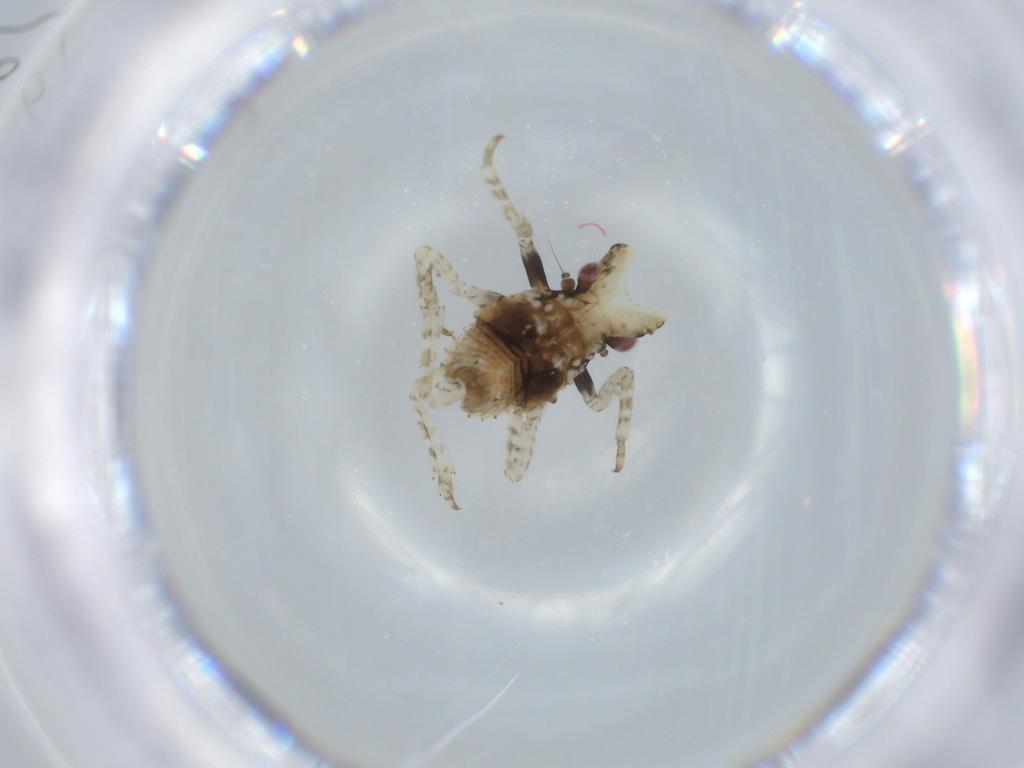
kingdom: Animalia
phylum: Arthropoda
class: Insecta
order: Hemiptera
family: Fulgoridae
